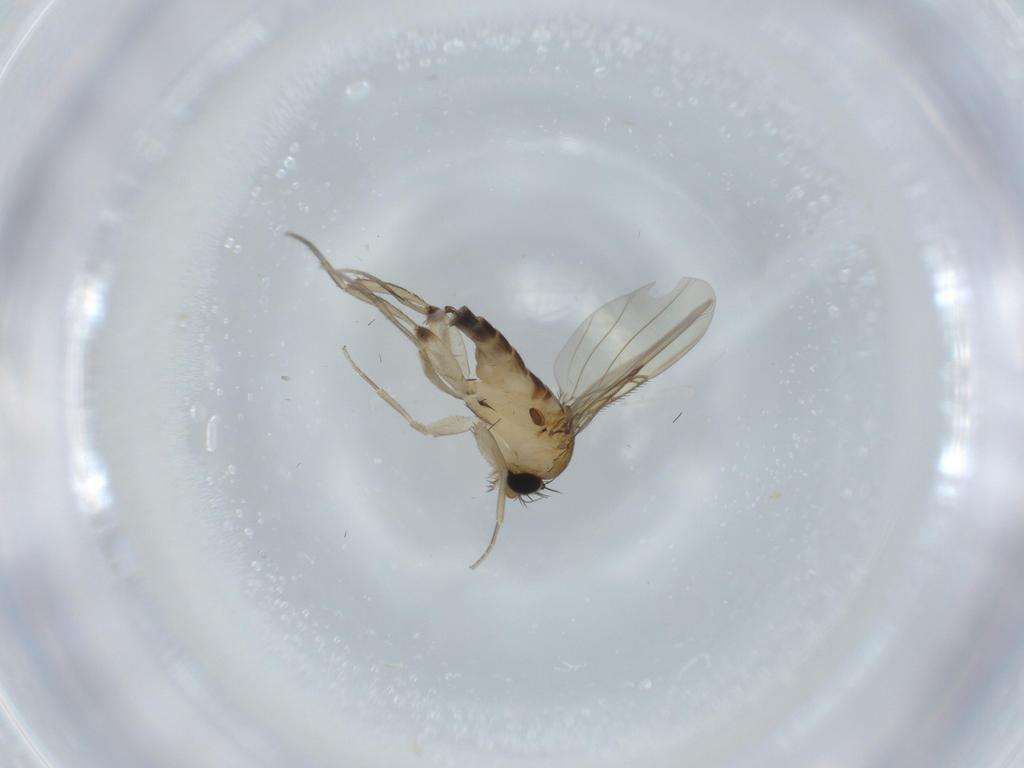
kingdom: Animalia
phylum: Arthropoda
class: Insecta
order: Diptera
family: Phoridae
